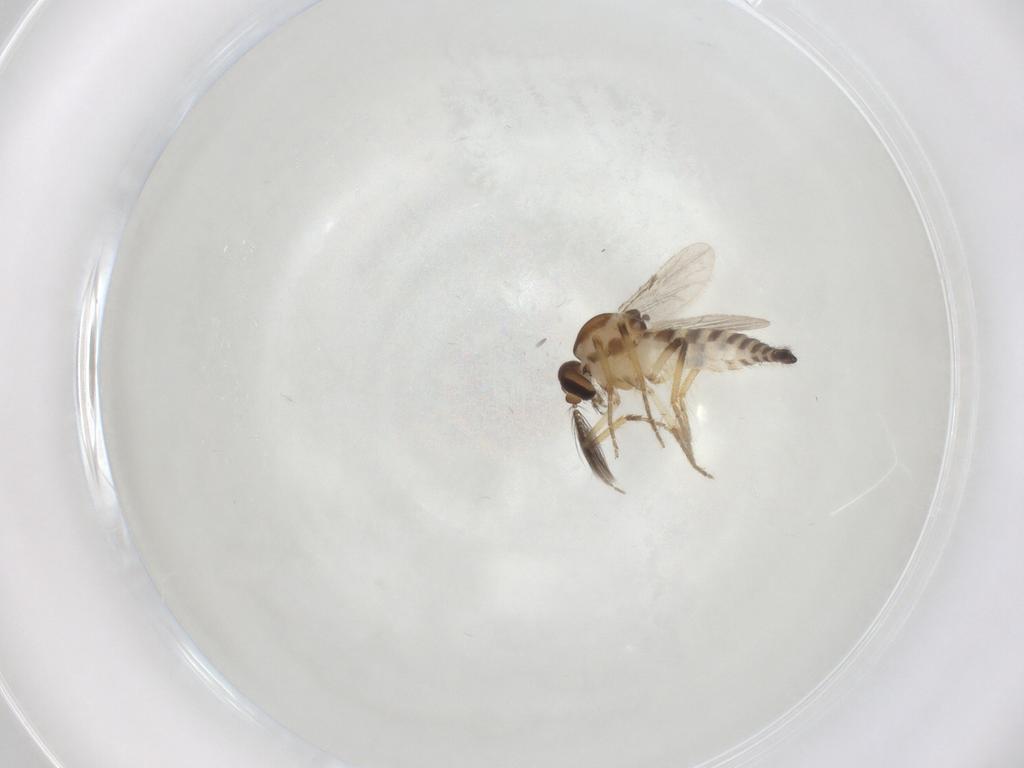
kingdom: Animalia
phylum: Arthropoda
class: Insecta
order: Diptera
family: Ceratopogonidae
